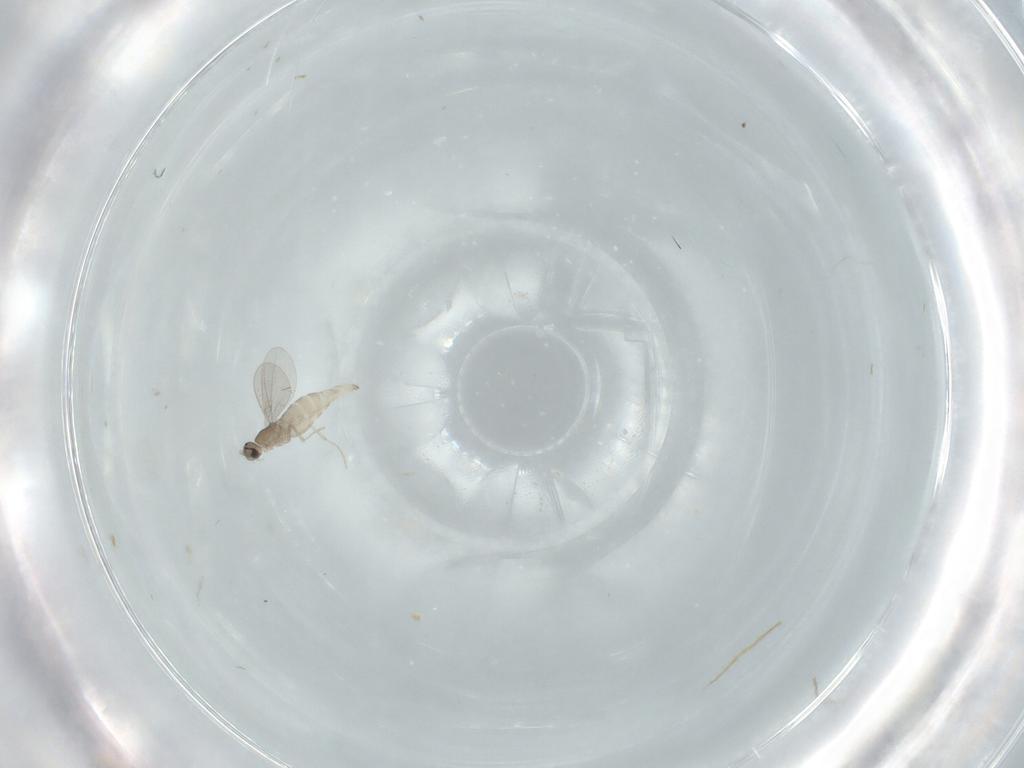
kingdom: Animalia
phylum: Arthropoda
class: Insecta
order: Diptera
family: Cecidomyiidae
